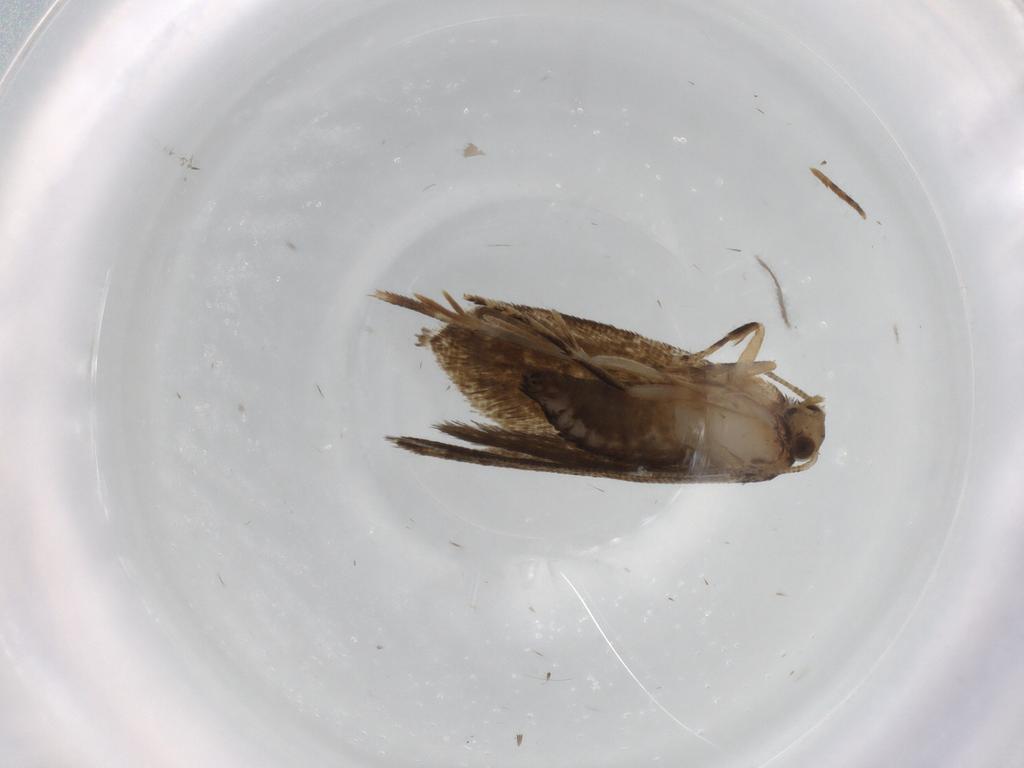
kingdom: Animalia
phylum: Arthropoda
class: Insecta
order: Lepidoptera
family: Crambidae
